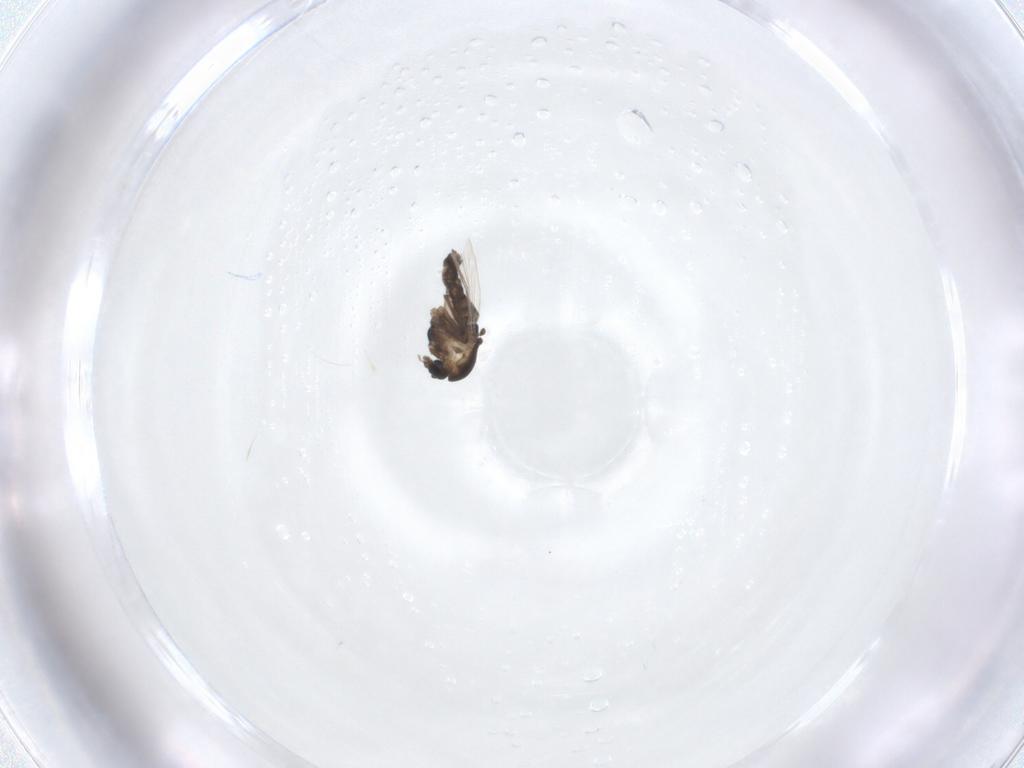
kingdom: Animalia
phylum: Arthropoda
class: Insecta
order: Diptera
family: Chironomidae
